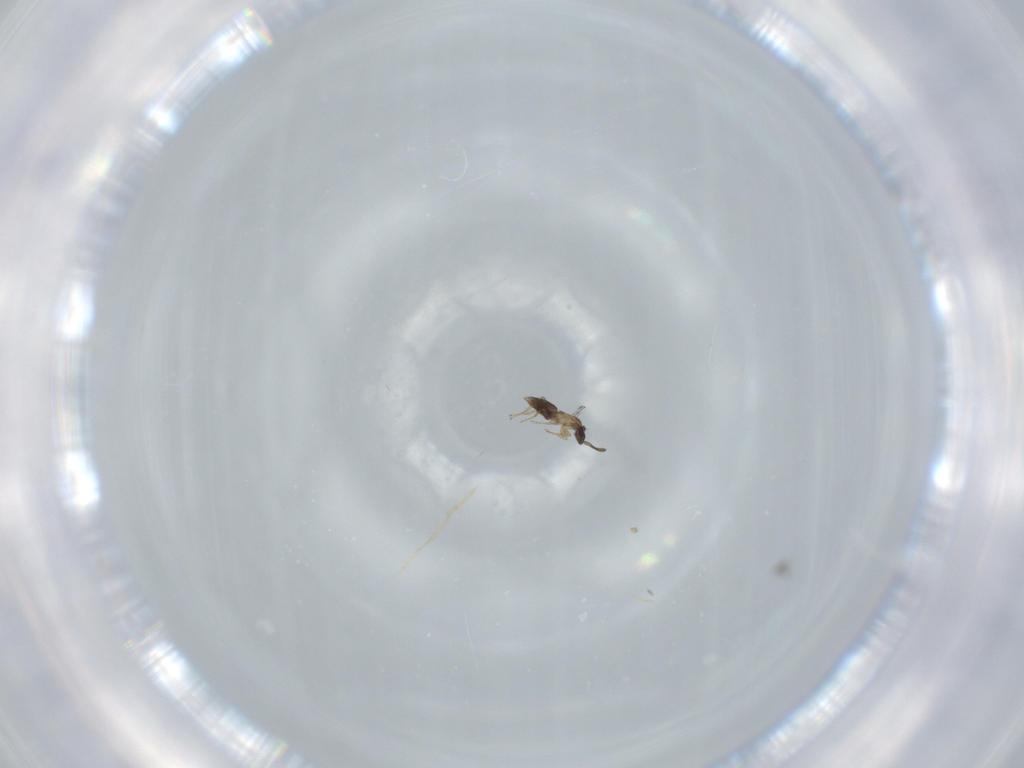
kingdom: Animalia
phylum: Arthropoda
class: Insecta
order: Hymenoptera
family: Mymaridae
